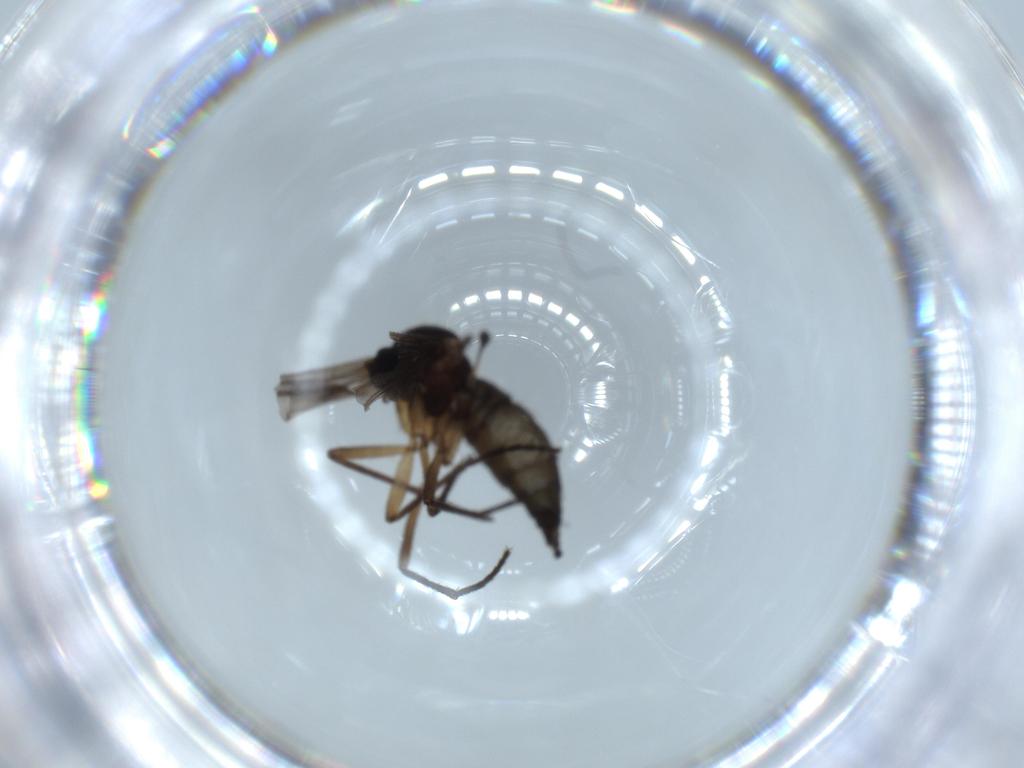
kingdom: Animalia
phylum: Arthropoda
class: Insecta
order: Diptera
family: Sciaridae
